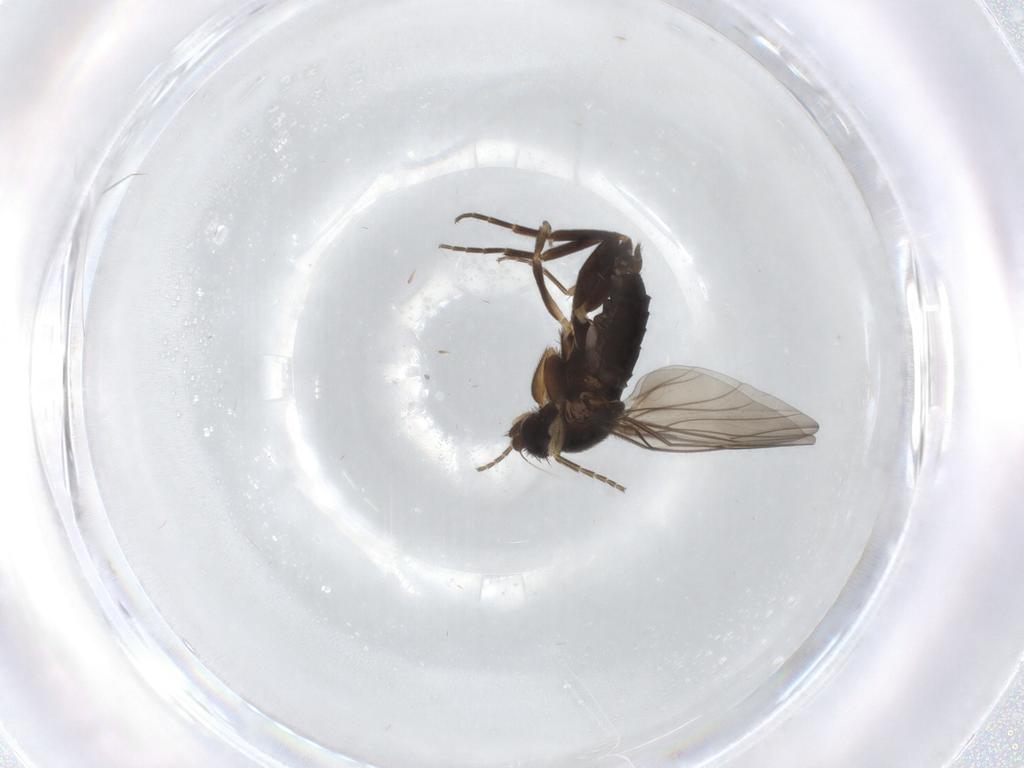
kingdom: Animalia
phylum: Arthropoda
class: Insecta
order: Diptera
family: Phoridae
